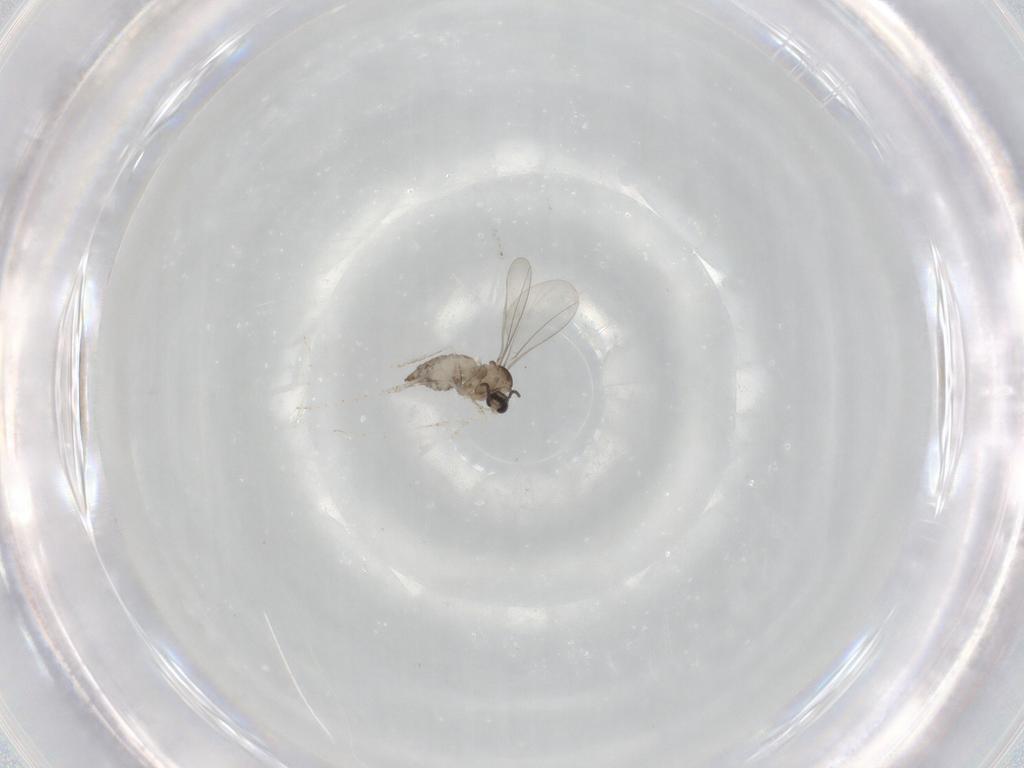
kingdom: Animalia
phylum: Arthropoda
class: Insecta
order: Diptera
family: Cecidomyiidae
